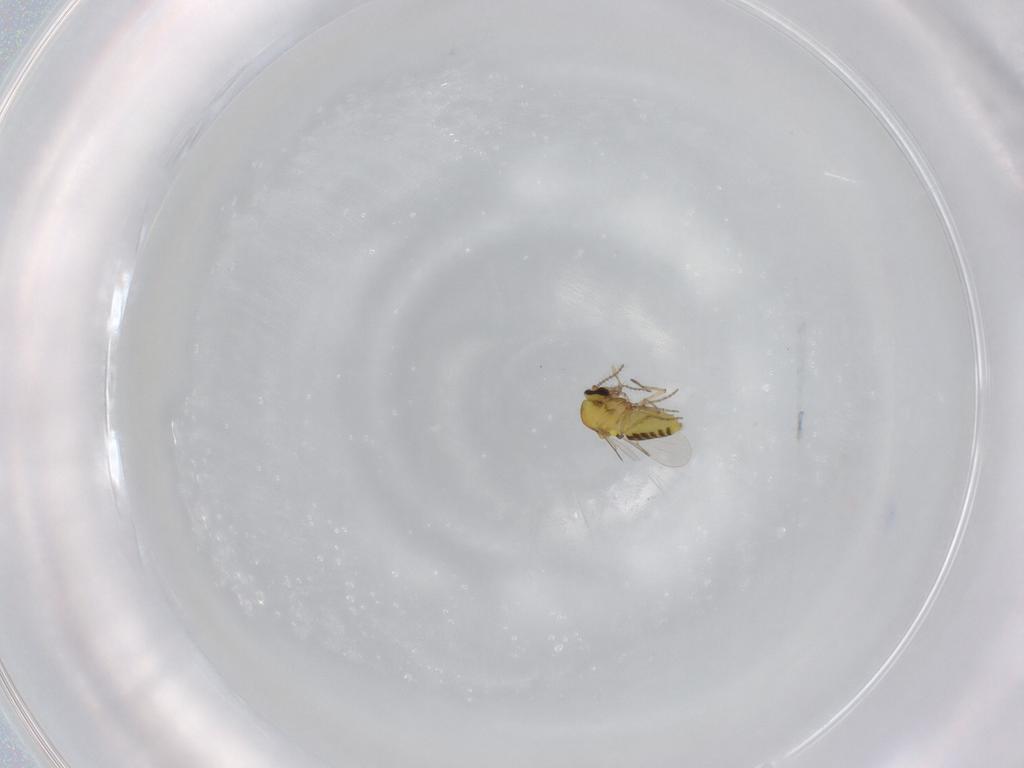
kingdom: Animalia
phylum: Arthropoda
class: Insecta
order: Diptera
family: Ceratopogonidae
